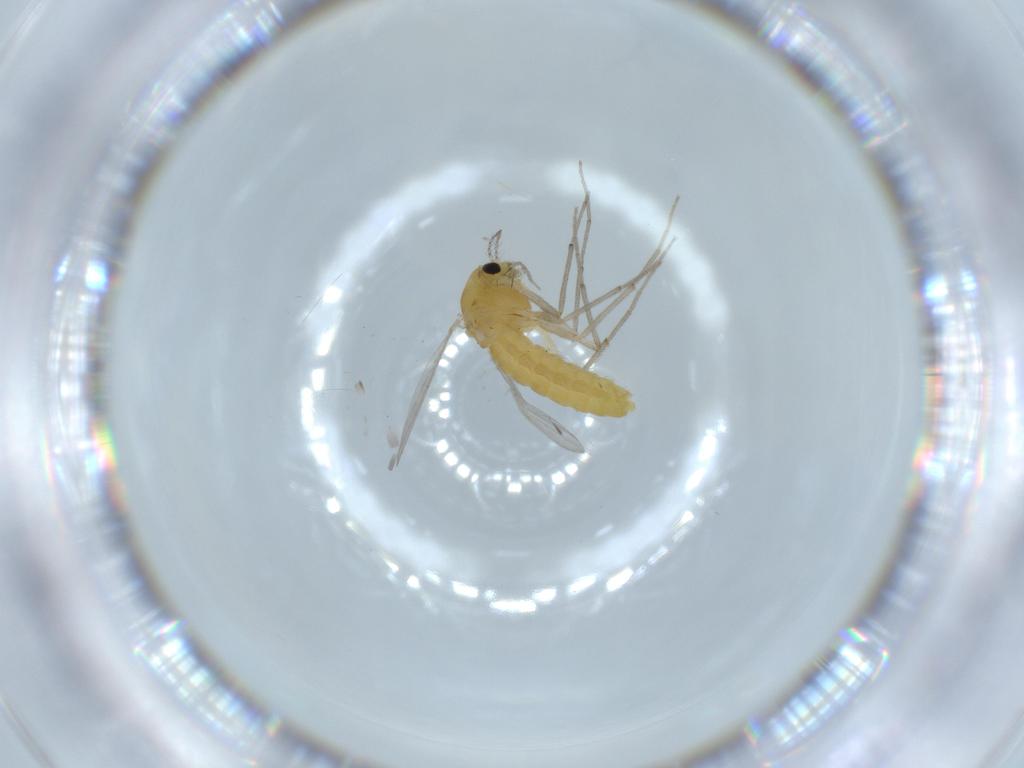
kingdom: Animalia
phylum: Arthropoda
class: Insecta
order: Diptera
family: Chironomidae
